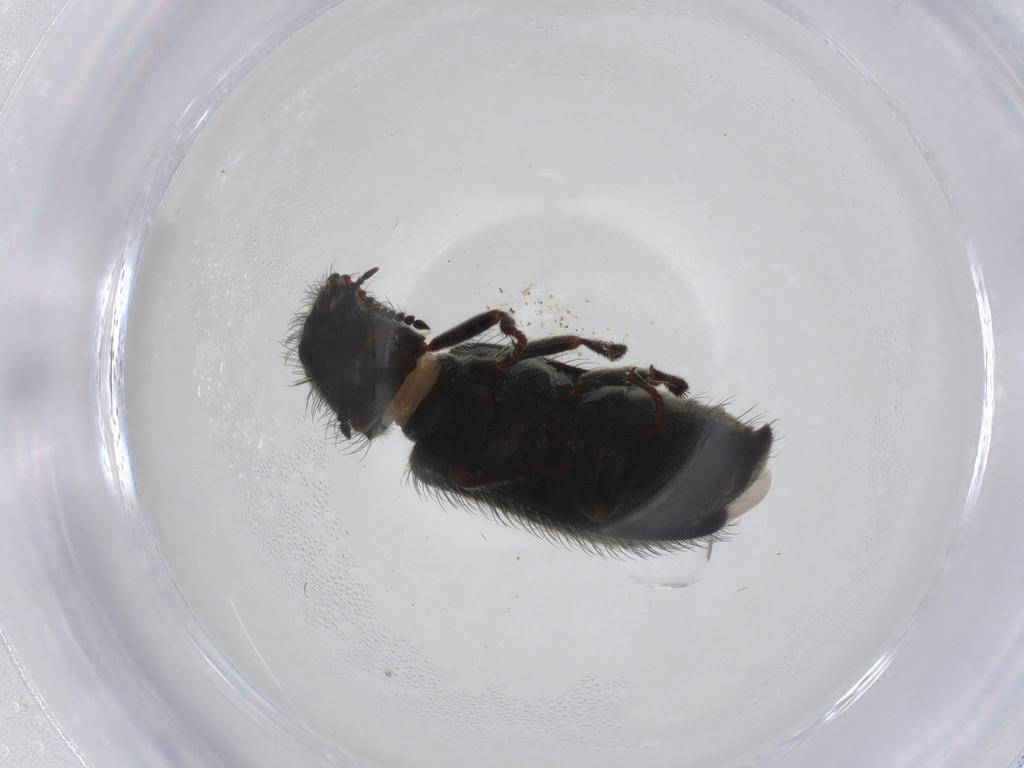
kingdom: Animalia
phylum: Arthropoda
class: Insecta
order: Coleoptera
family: Melyridae
